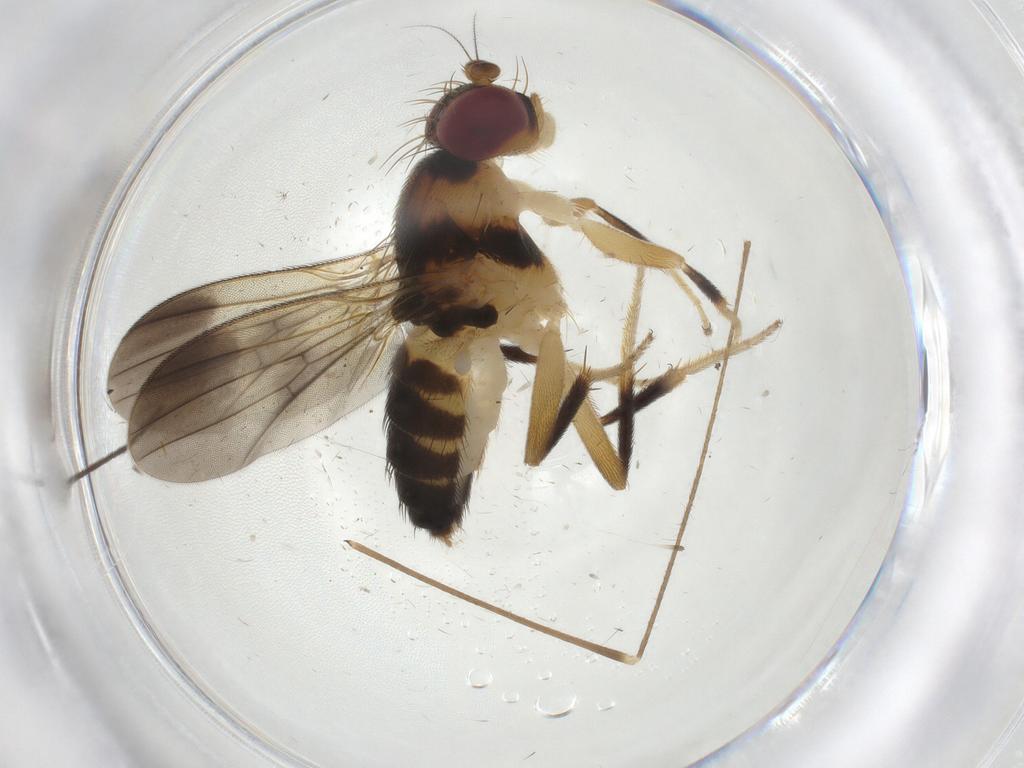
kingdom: Animalia
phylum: Arthropoda
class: Insecta
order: Diptera
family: Clusiidae
